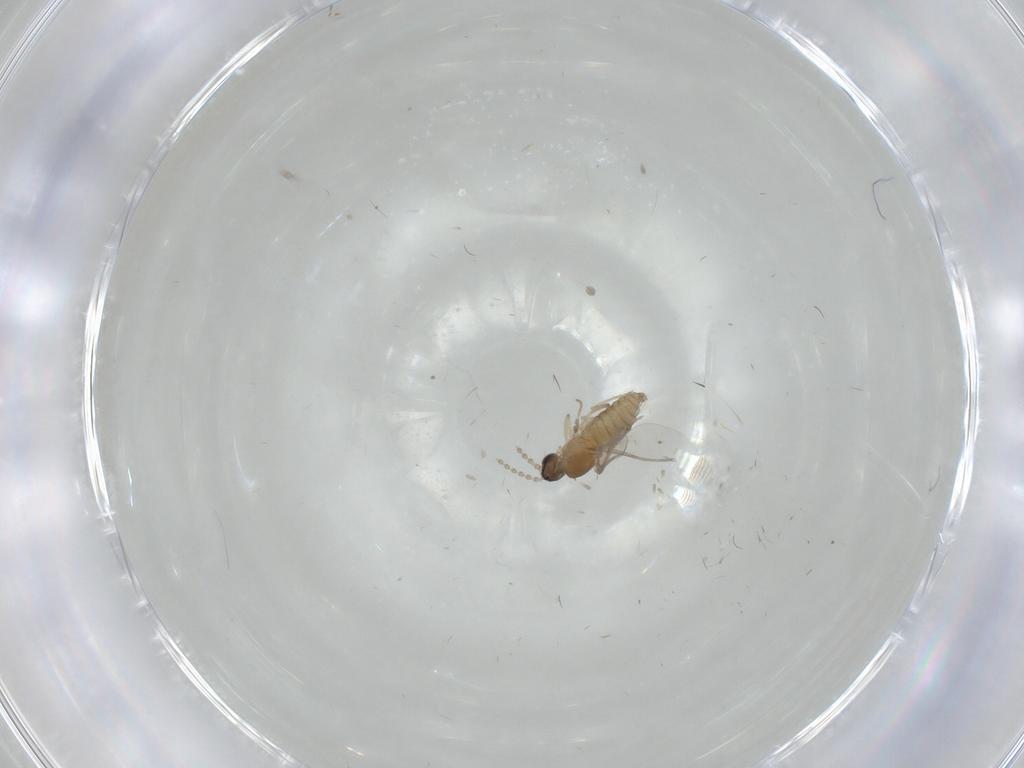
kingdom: Animalia
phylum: Arthropoda
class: Insecta
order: Diptera
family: Cecidomyiidae
